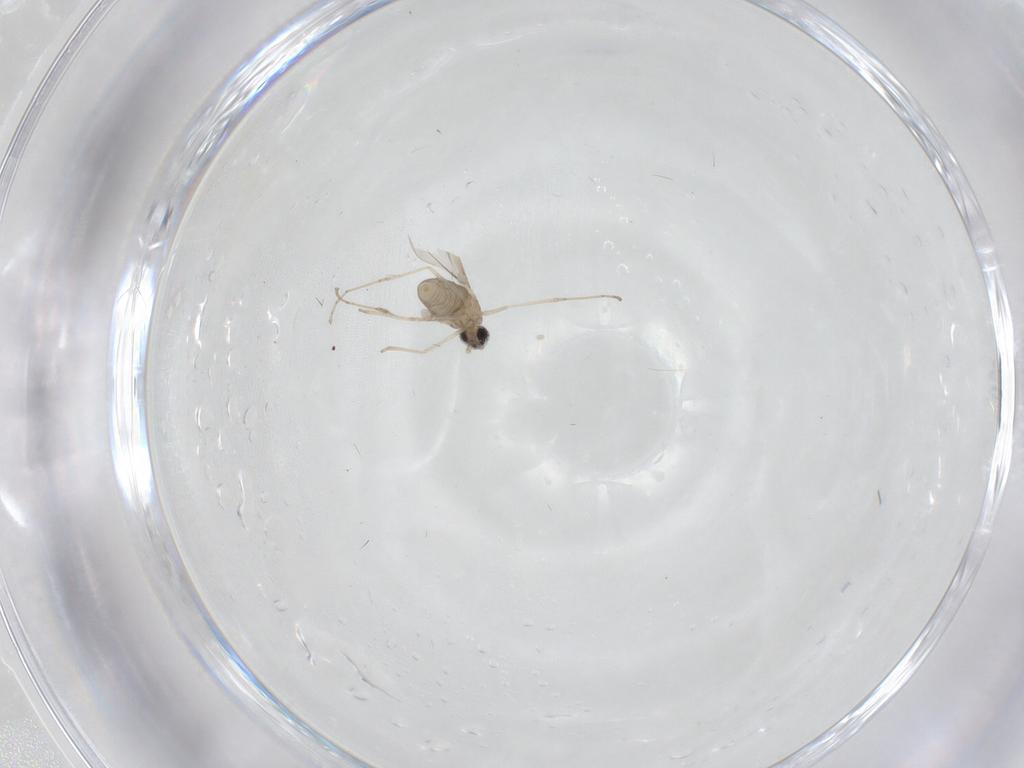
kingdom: Animalia
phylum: Arthropoda
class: Insecta
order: Diptera
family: Cecidomyiidae
